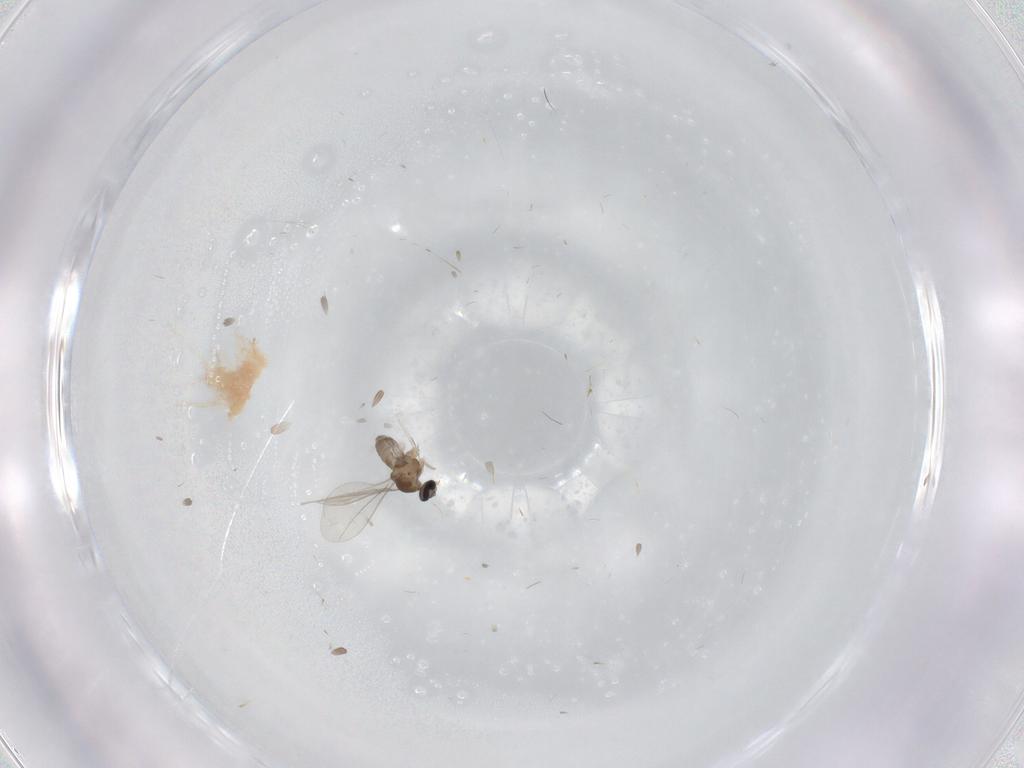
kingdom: Animalia
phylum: Arthropoda
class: Insecta
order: Diptera
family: Cecidomyiidae
